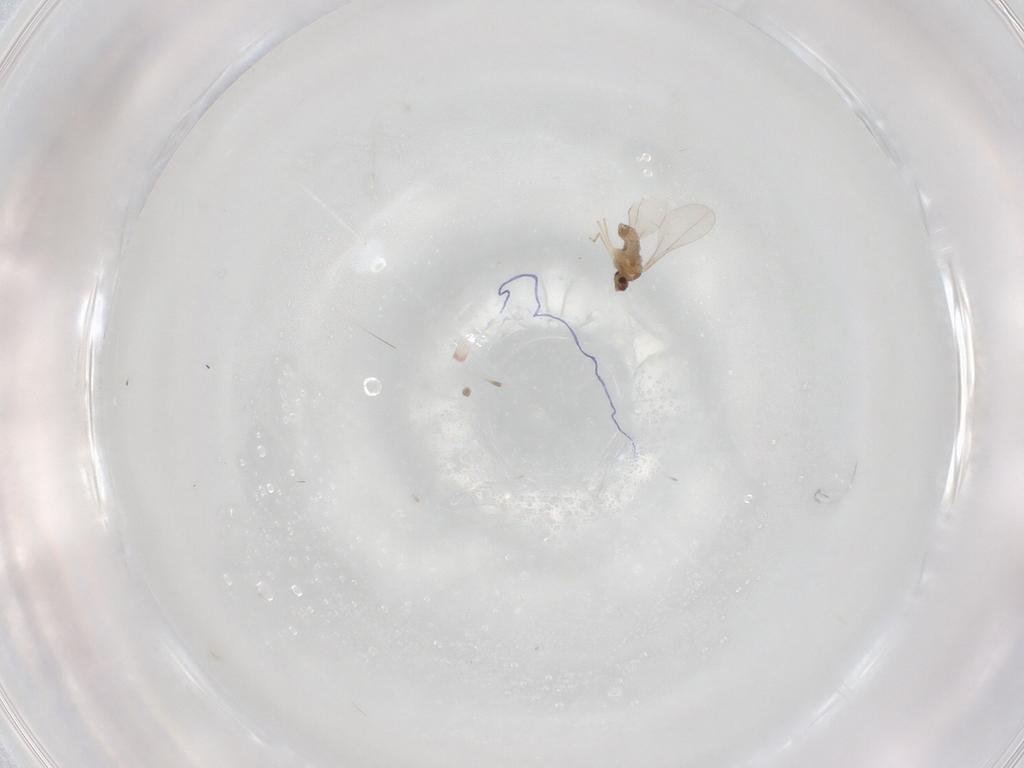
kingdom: Animalia
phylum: Arthropoda
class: Insecta
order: Diptera
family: Cecidomyiidae
